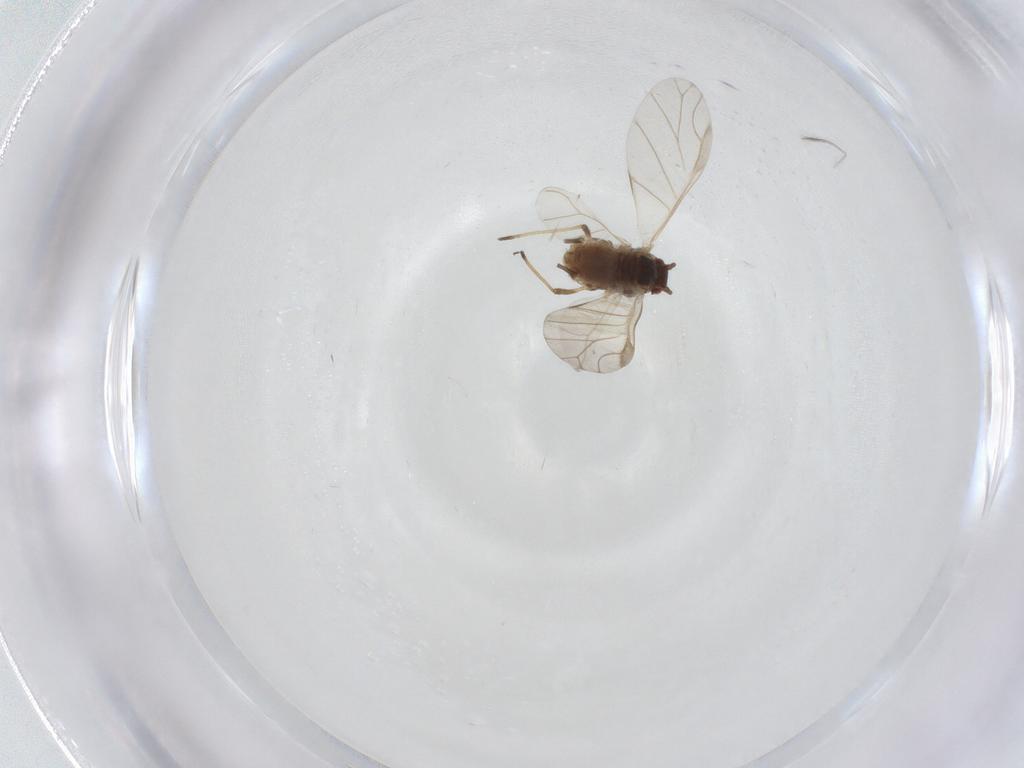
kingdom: Animalia
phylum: Arthropoda
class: Insecta
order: Hemiptera
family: Aphididae
